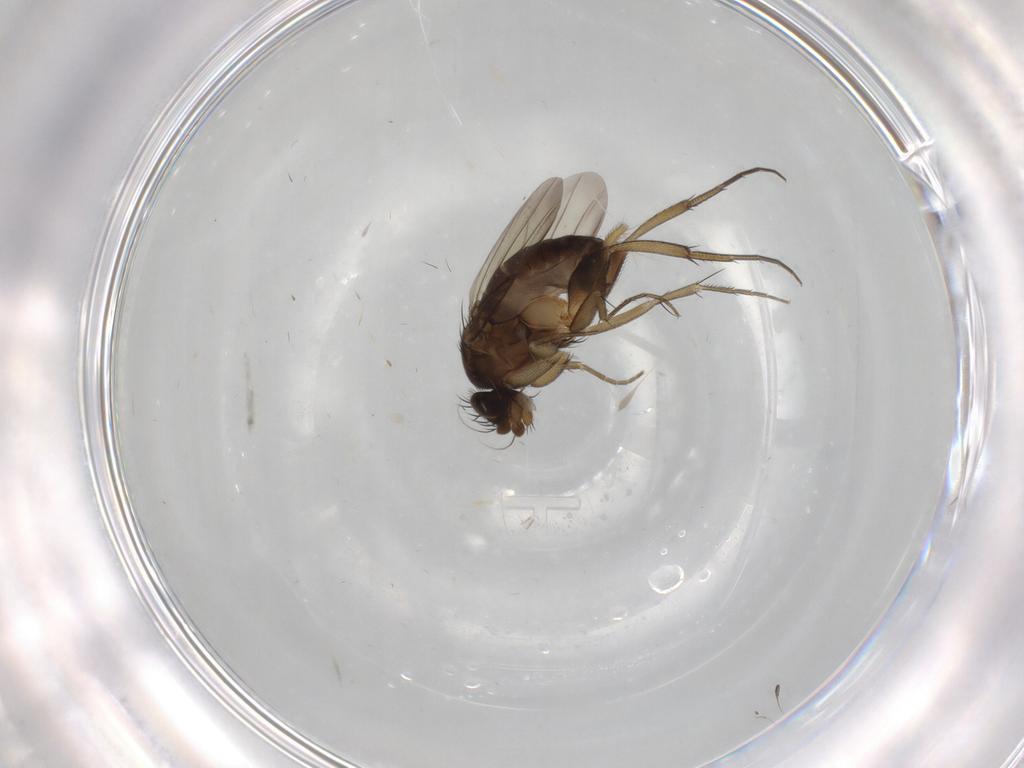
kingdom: Animalia
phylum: Arthropoda
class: Insecta
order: Diptera
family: Phoridae
